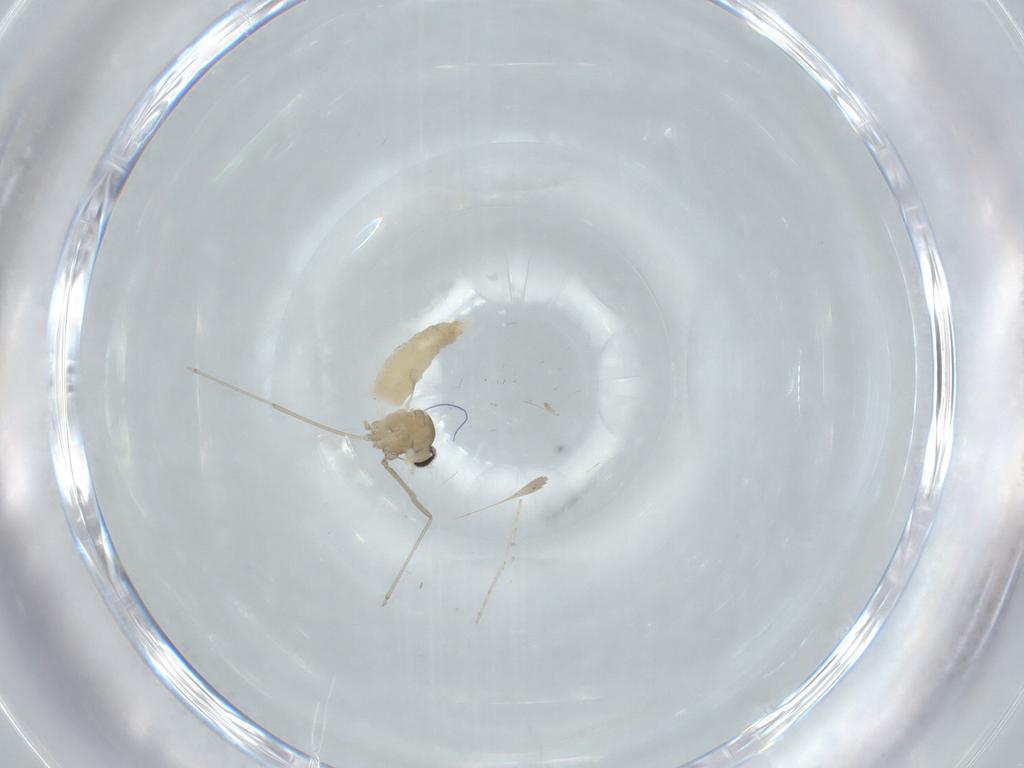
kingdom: Animalia
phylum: Arthropoda
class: Insecta
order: Diptera
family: Cecidomyiidae
